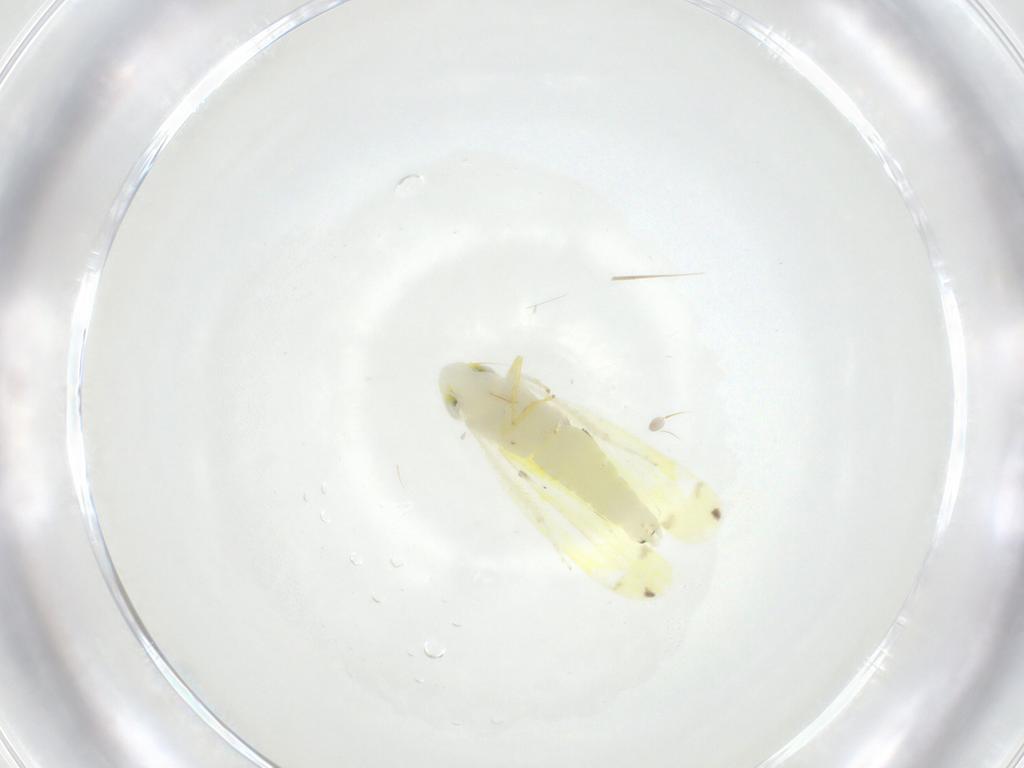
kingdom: Animalia
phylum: Arthropoda
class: Insecta
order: Hemiptera
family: Cicadellidae
